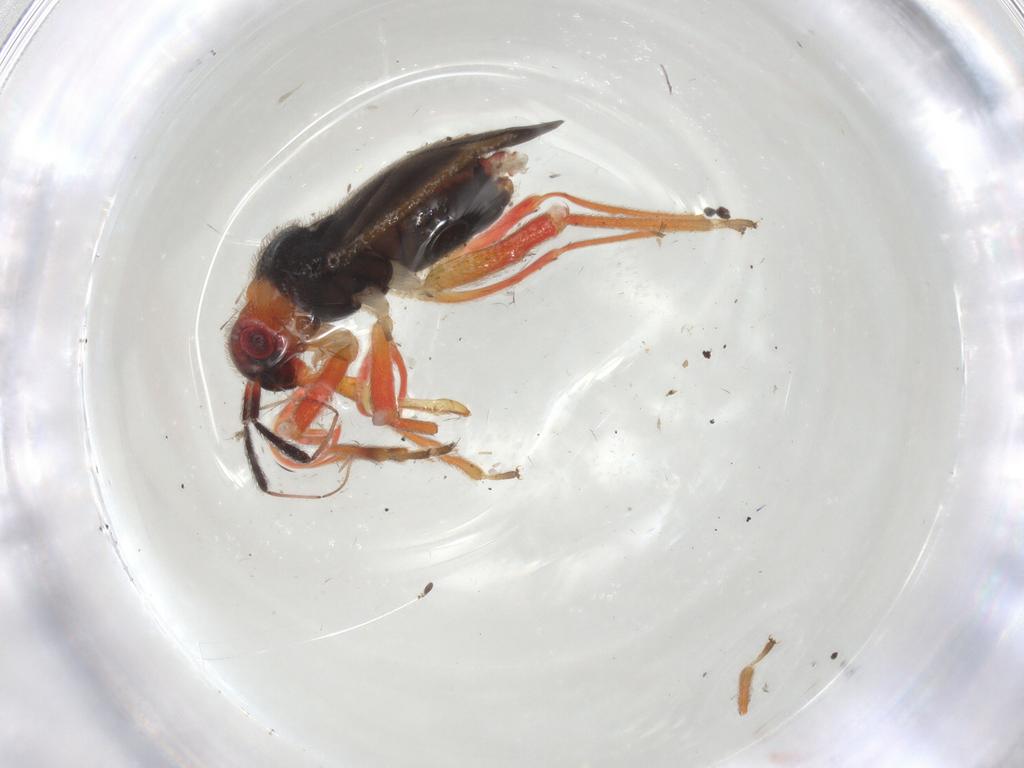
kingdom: Animalia
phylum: Arthropoda
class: Insecta
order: Hemiptera
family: Miridae
